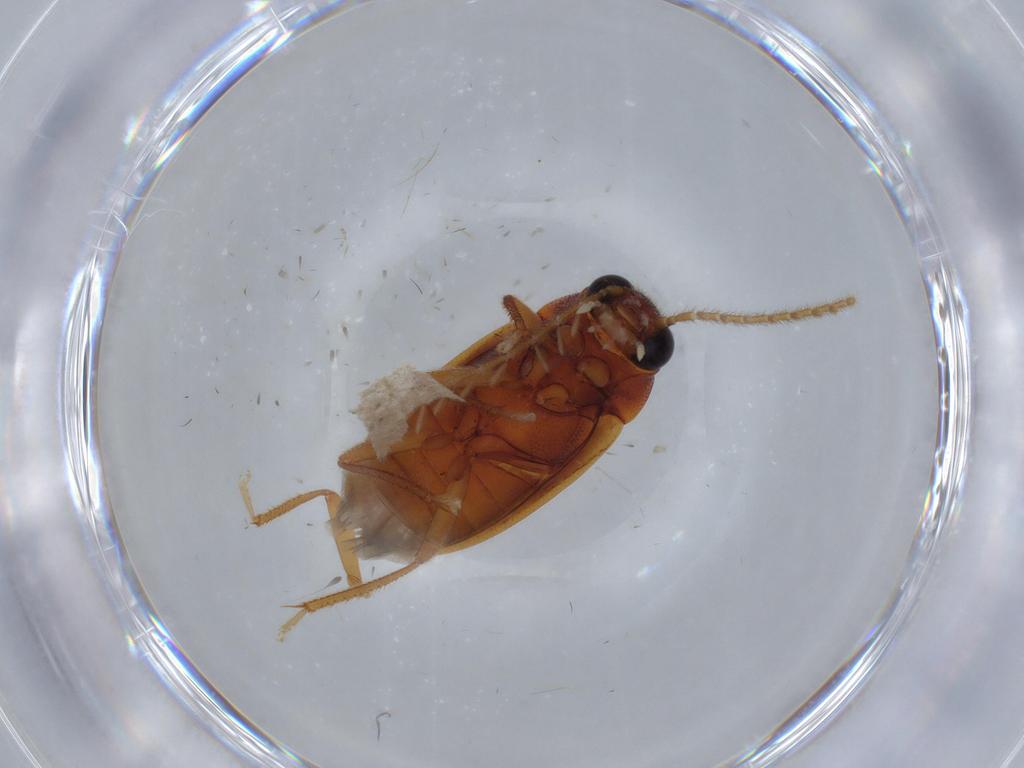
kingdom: Animalia
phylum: Arthropoda
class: Insecta
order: Coleoptera
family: Ptilodactylidae
